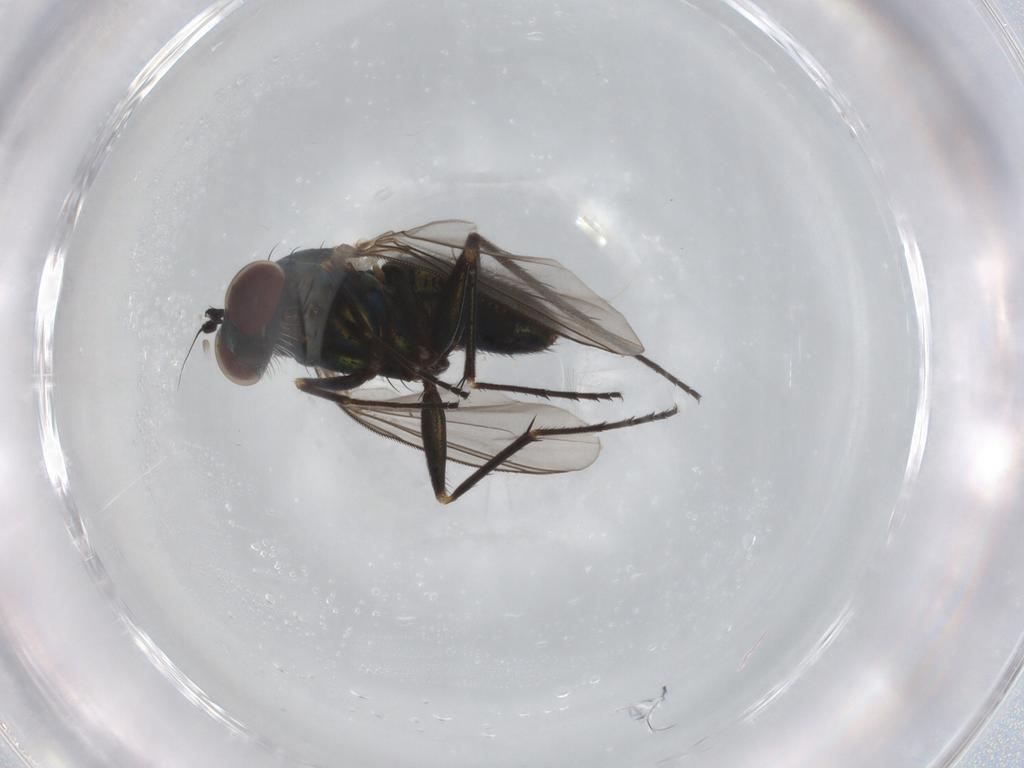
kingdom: Animalia
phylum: Arthropoda
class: Insecta
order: Diptera
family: Dolichopodidae
